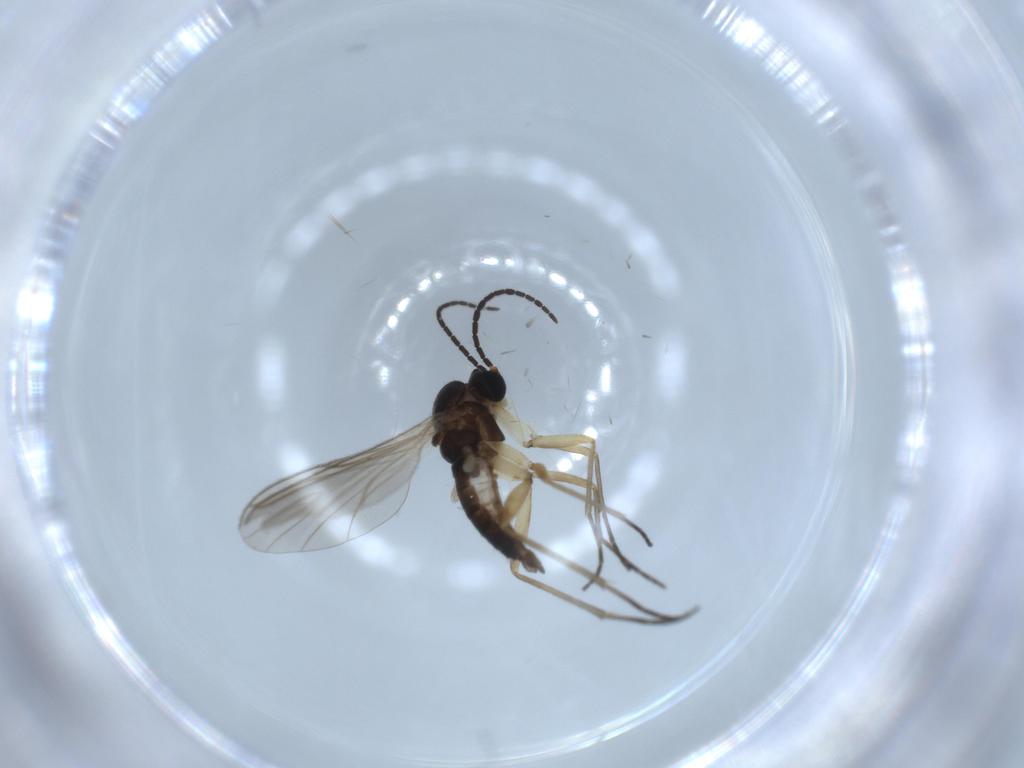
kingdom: Animalia
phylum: Arthropoda
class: Insecta
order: Diptera
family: Sciaridae
